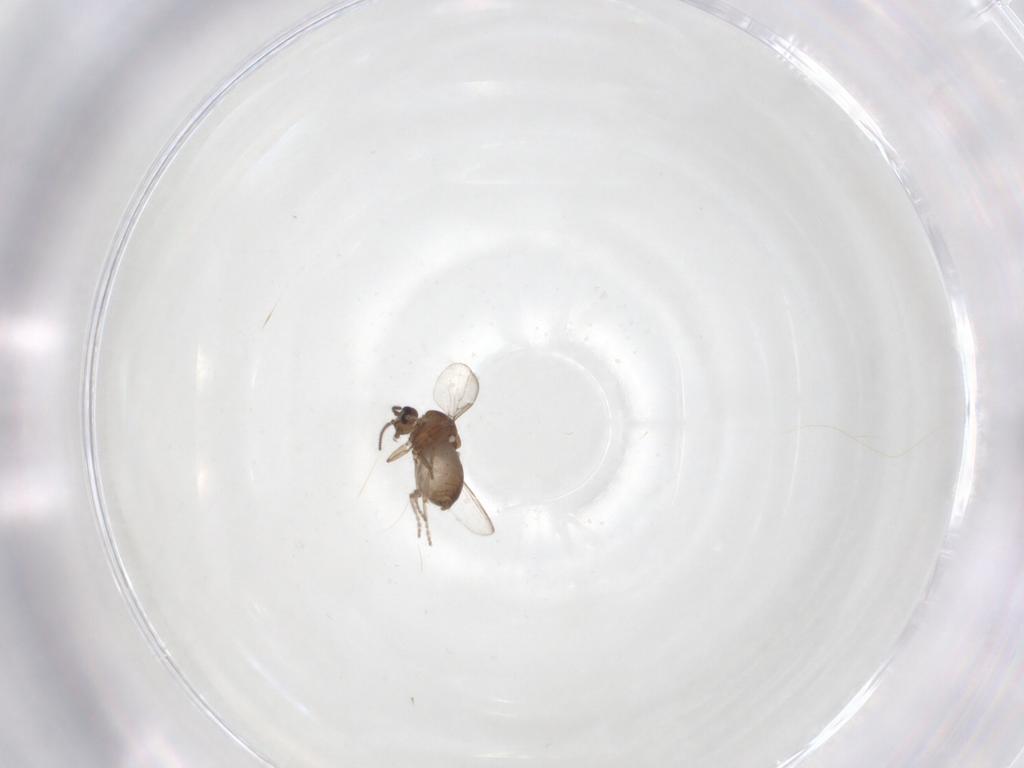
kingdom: Animalia
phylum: Arthropoda
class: Insecta
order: Diptera
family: Ceratopogonidae
